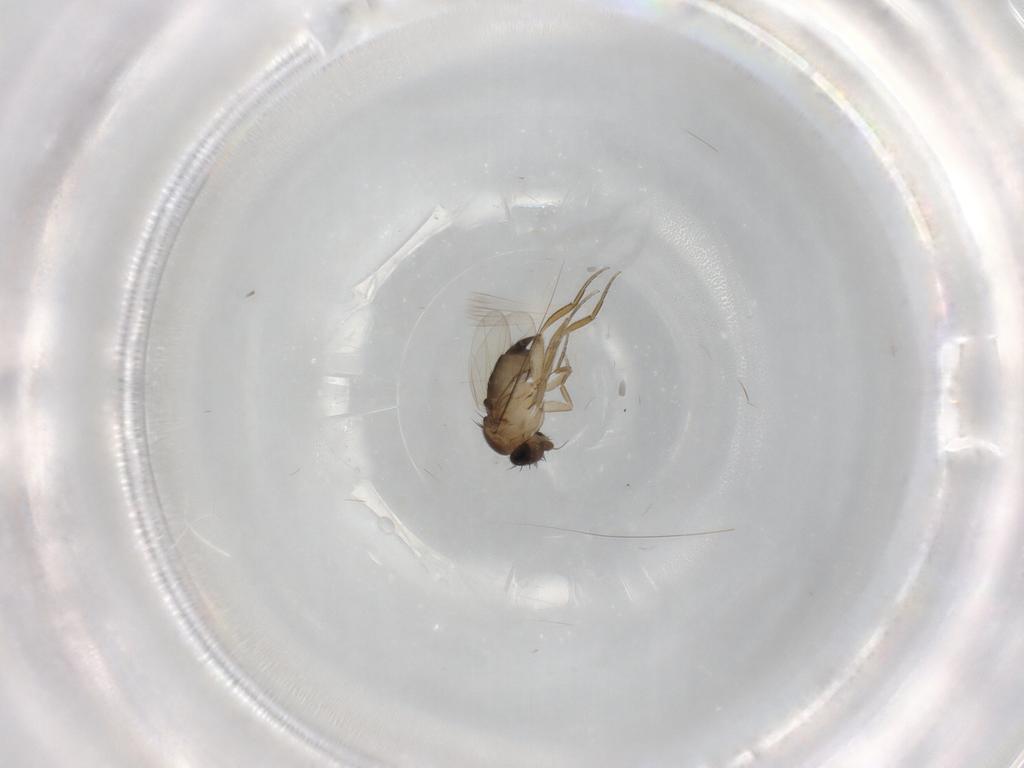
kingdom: Animalia
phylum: Arthropoda
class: Insecta
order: Diptera
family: Phoridae
